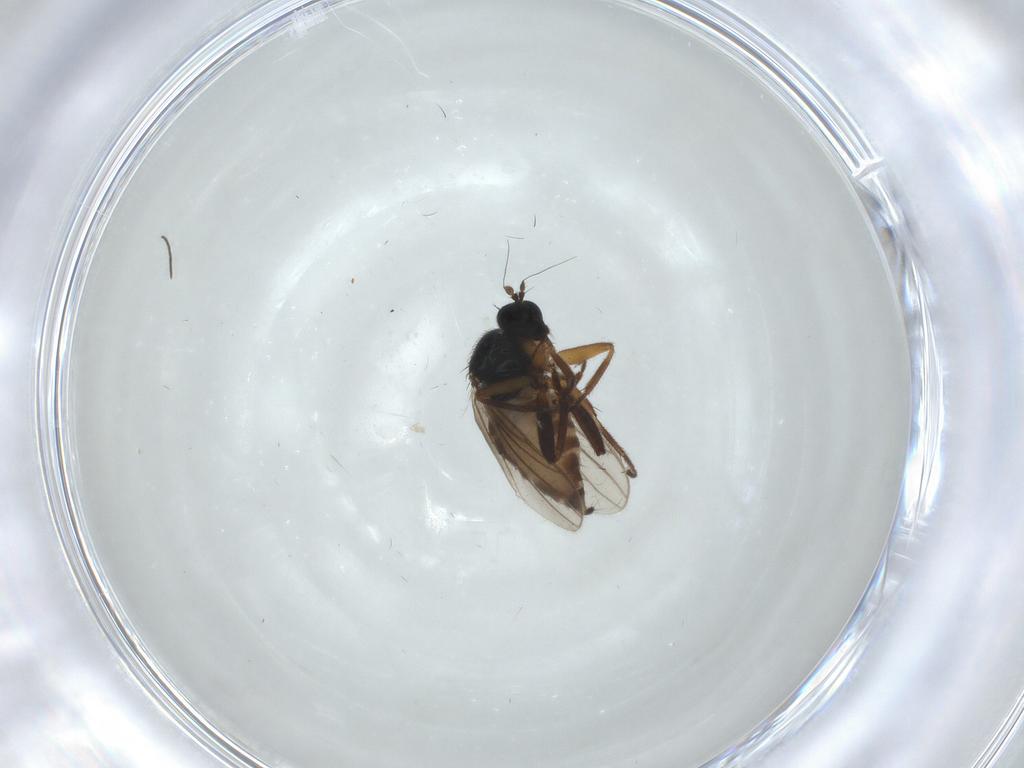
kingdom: Animalia
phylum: Arthropoda
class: Insecta
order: Diptera
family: Hybotidae
